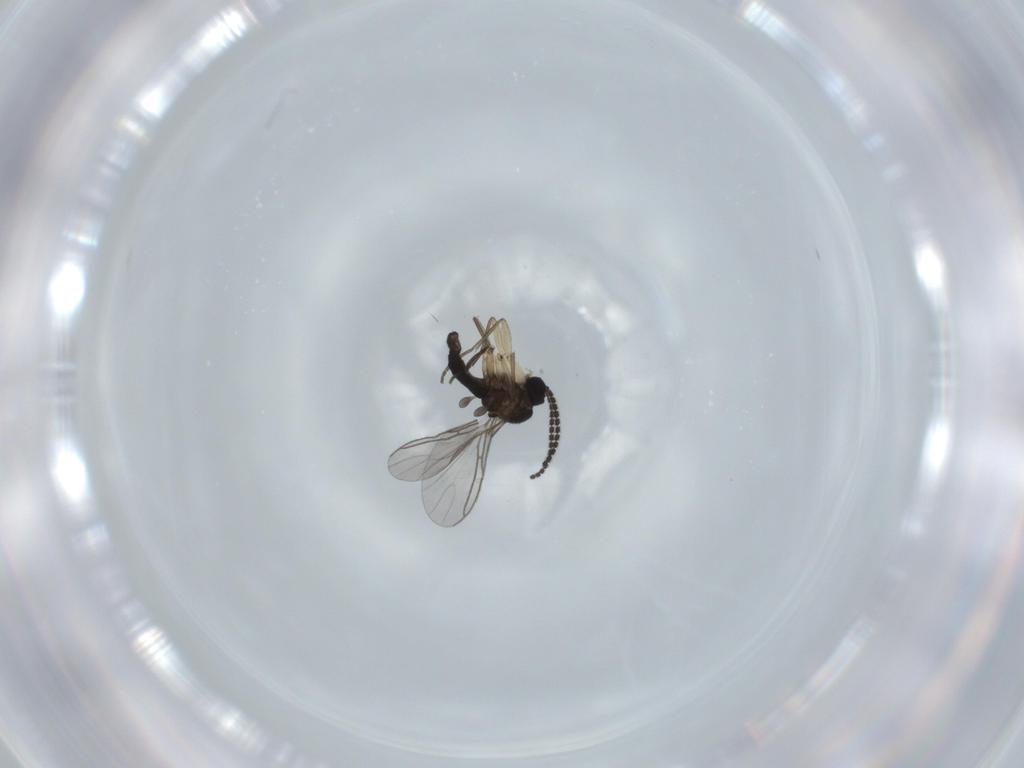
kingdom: Animalia
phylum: Arthropoda
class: Insecta
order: Diptera
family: Sciaridae
